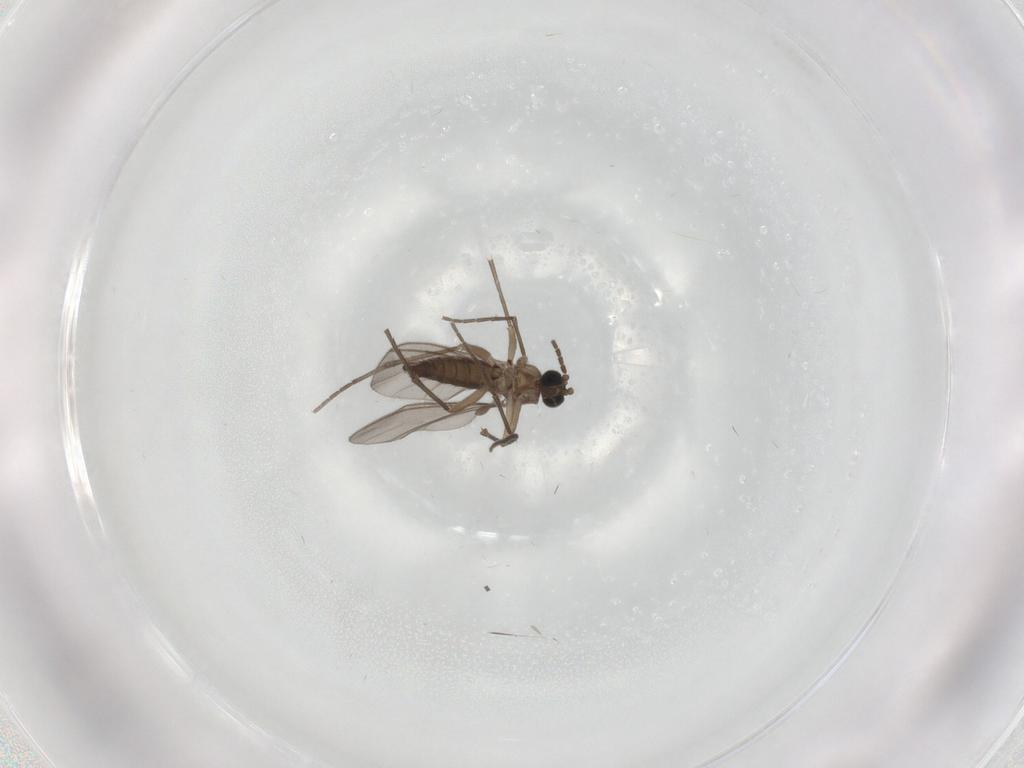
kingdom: Animalia
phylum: Arthropoda
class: Insecta
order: Diptera
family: Sciaridae
